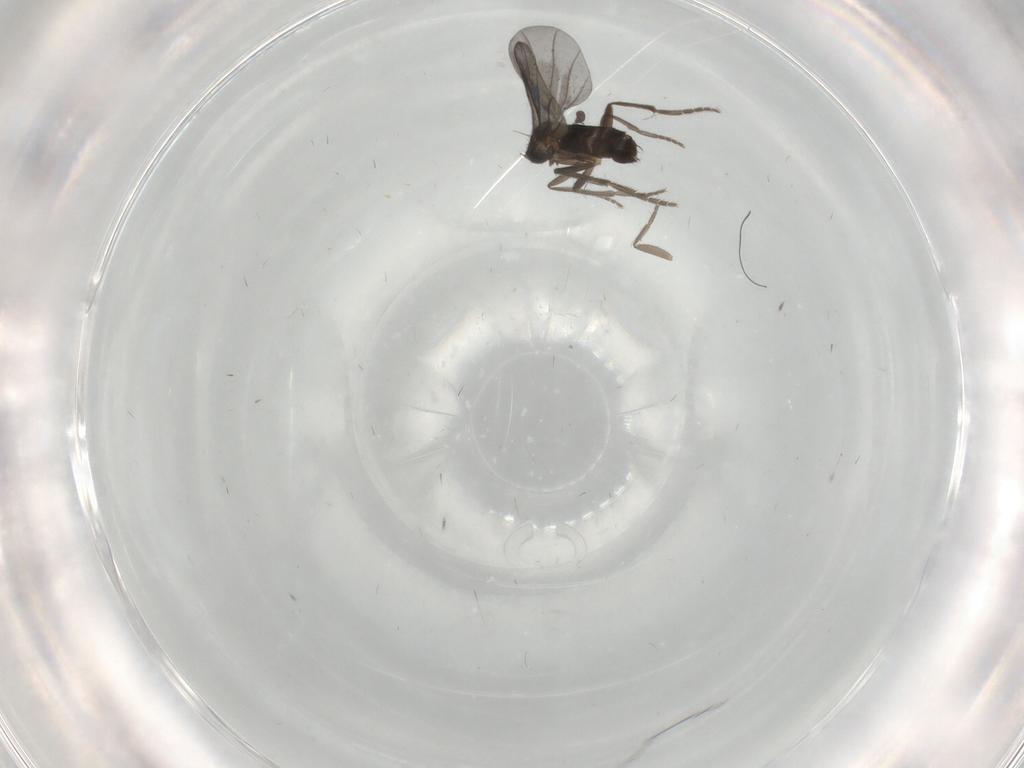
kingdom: Animalia
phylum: Arthropoda
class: Insecta
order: Diptera
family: Phoridae
